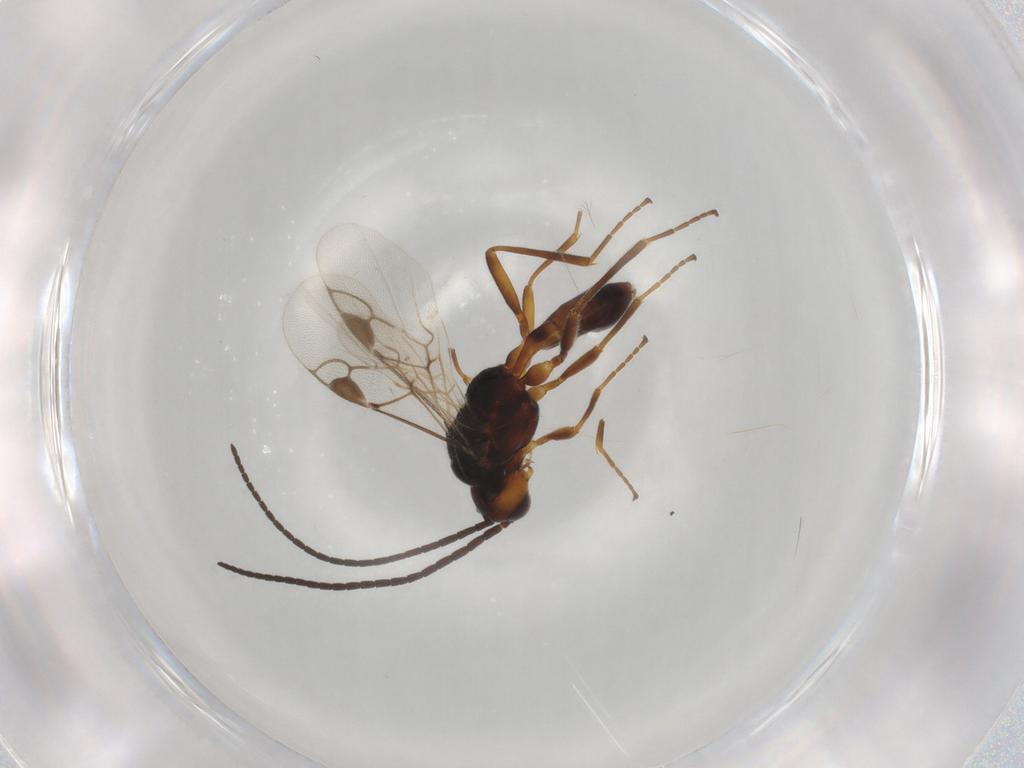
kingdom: Animalia
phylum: Arthropoda
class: Insecta
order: Hymenoptera
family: Braconidae
